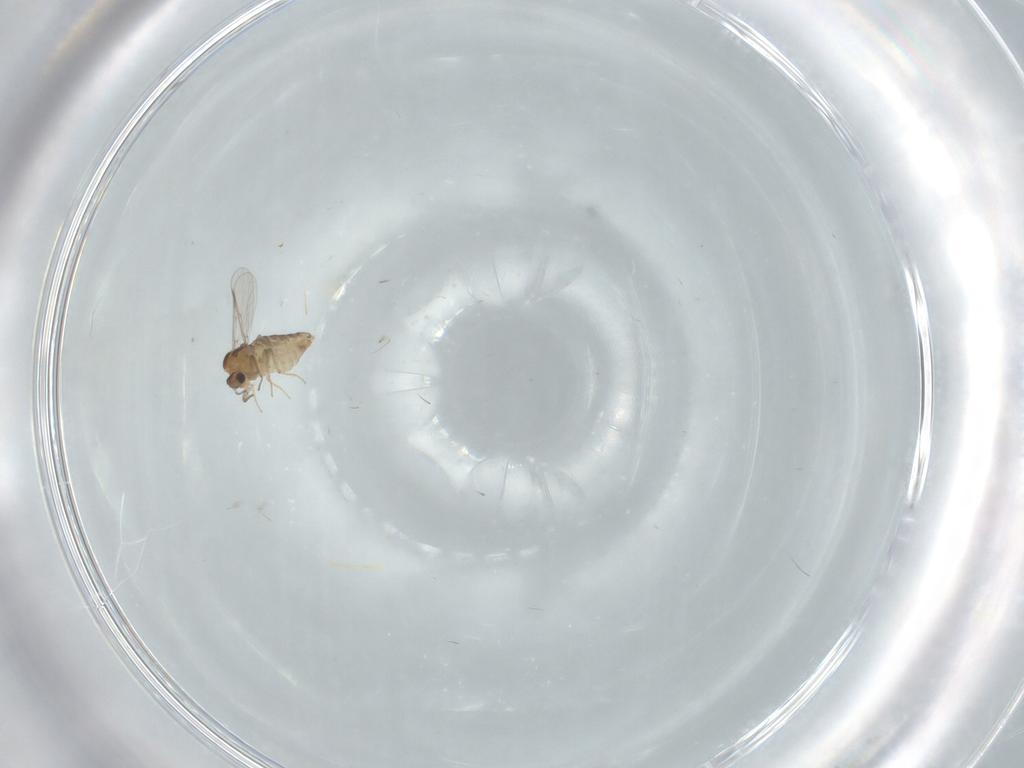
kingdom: Animalia
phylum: Arthropoda
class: Insecta
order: Diptera
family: Chironomidae
